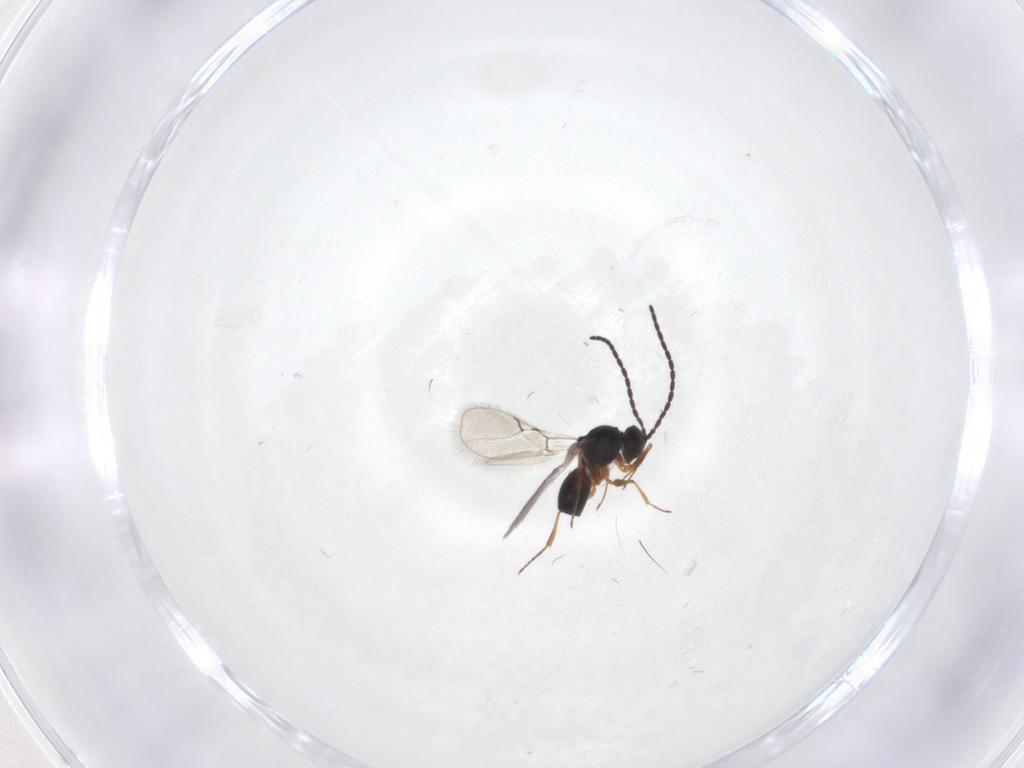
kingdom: Animalia
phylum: Arthropoda
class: Insecta
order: Hymenoptera
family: Figitidae
